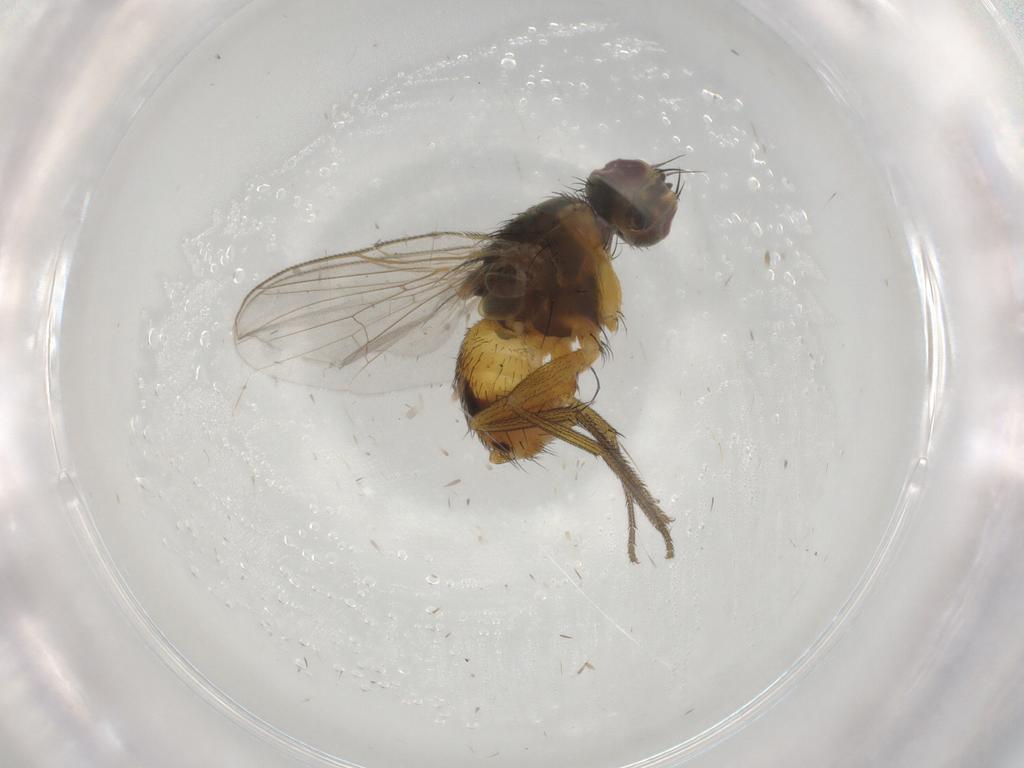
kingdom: Animalia
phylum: Arthropoda
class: Insecta
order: Diptera
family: Muscidae
